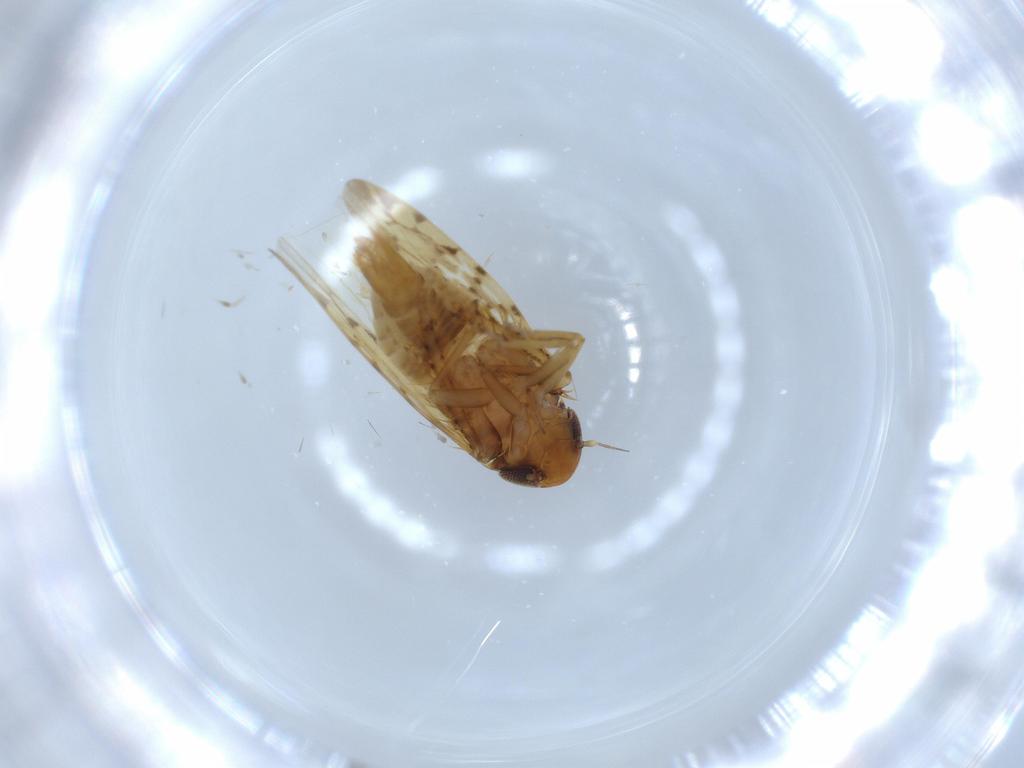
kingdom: Animalia
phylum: Arthropoda
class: Insecta
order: Hemiptera
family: Cicadellidae
